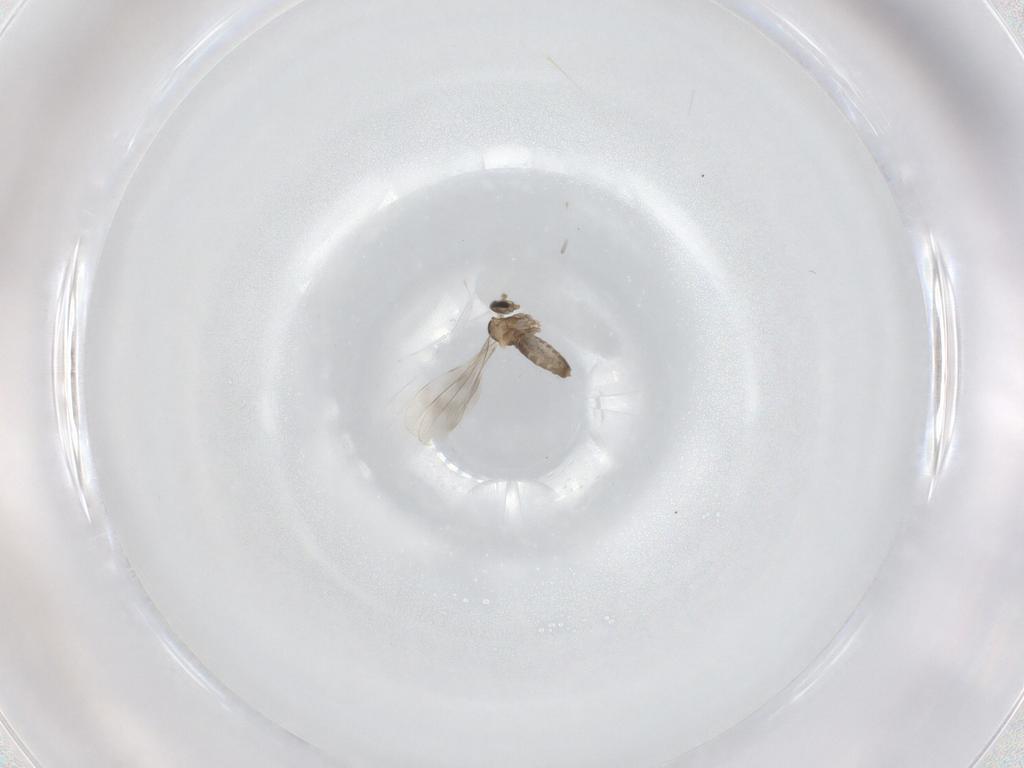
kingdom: Animalia
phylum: Arthropoda
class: Insecta
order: Diptera
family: Cecidomyiidae
